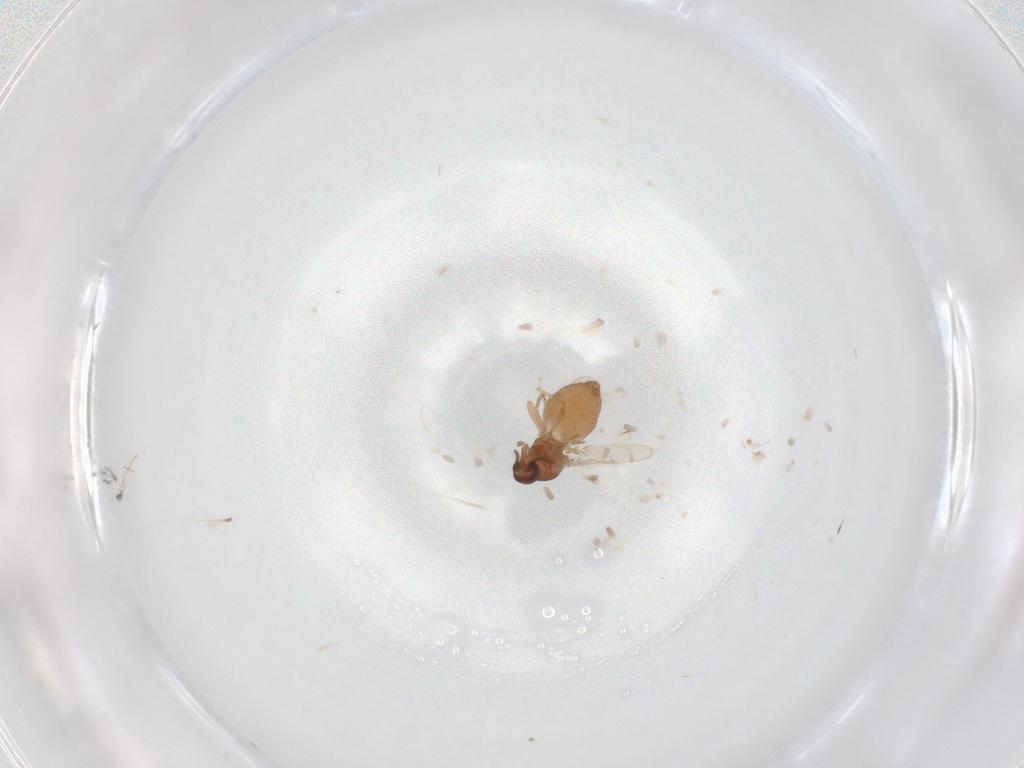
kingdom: Animalia
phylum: Arthropoda
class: Insecta
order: Diptera
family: Ceratopogonidae
